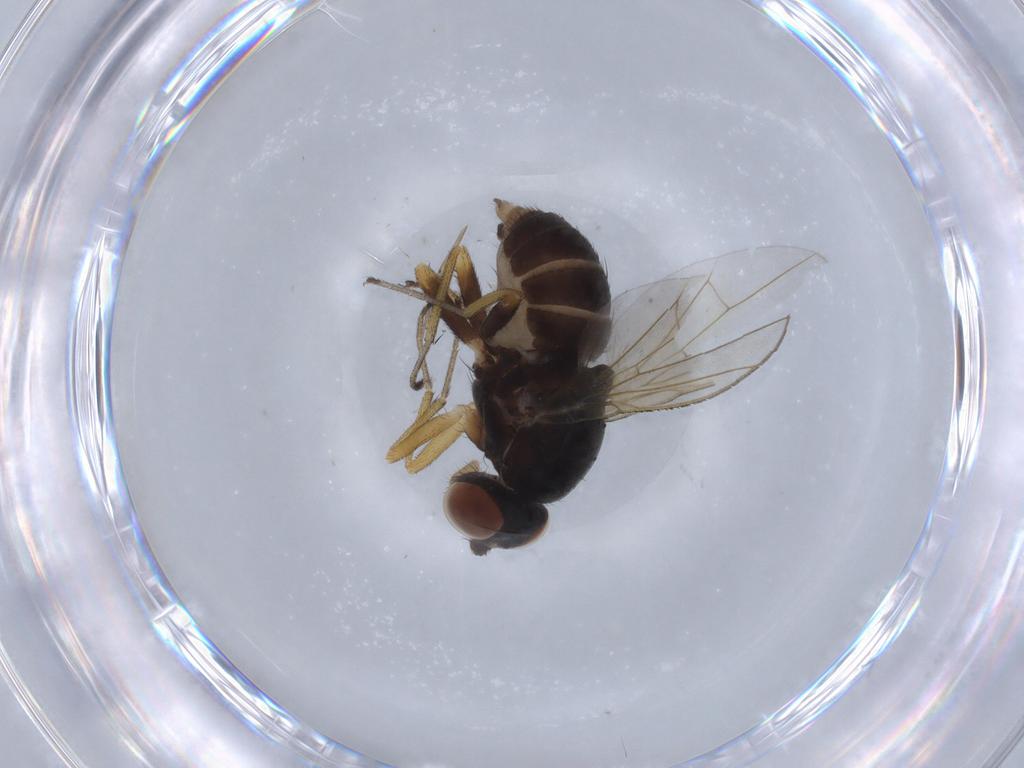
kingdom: Animalia
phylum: Arthropoda
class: Insecta
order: Diptera
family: Lauxaniidae
